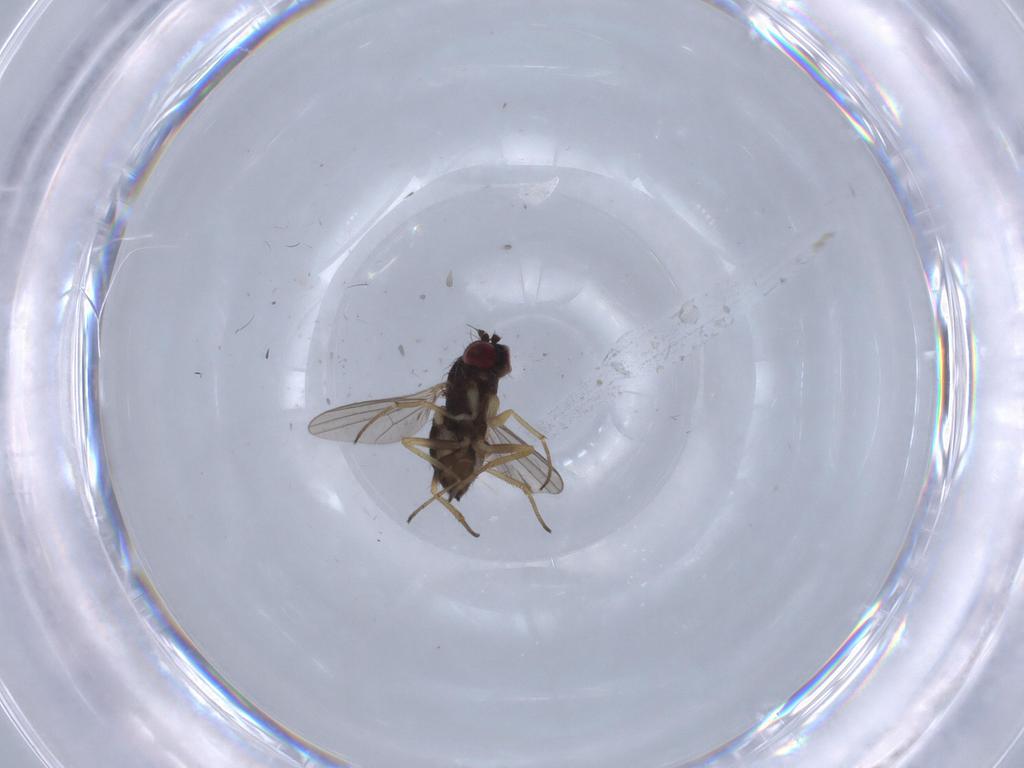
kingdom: Animalia
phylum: Arthropoda
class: Insecta
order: Diptera
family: Dolichopodidae
